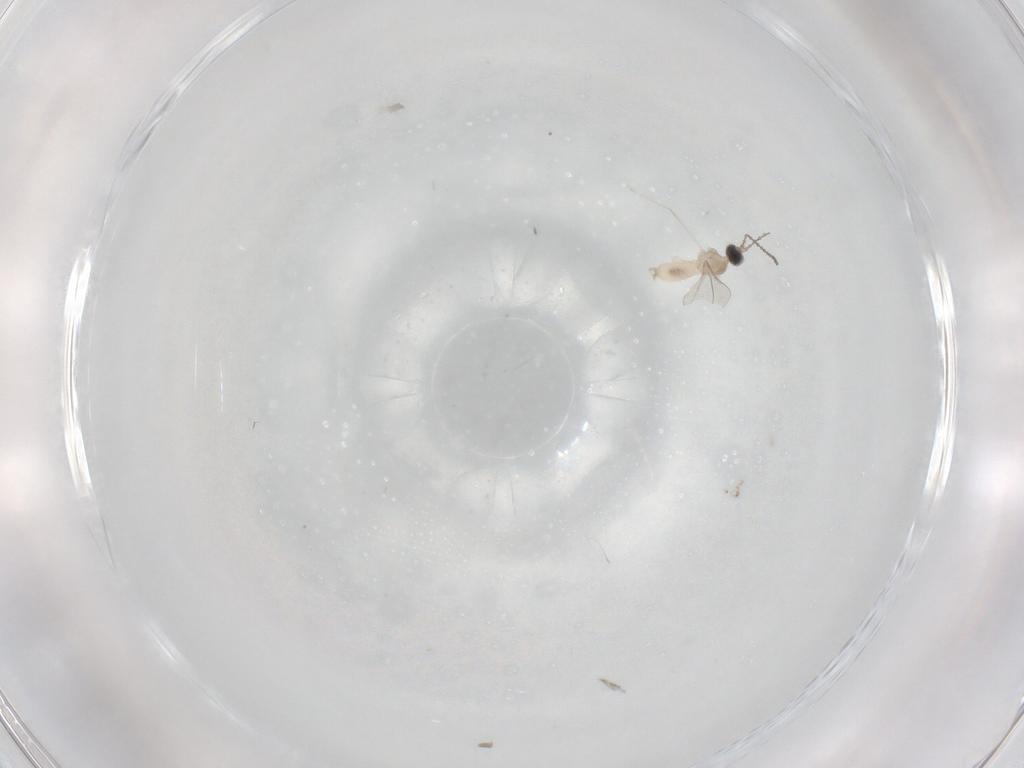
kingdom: Animalia
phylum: Arthropoda
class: Insecta
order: Diptera
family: Cecidomyiidae
